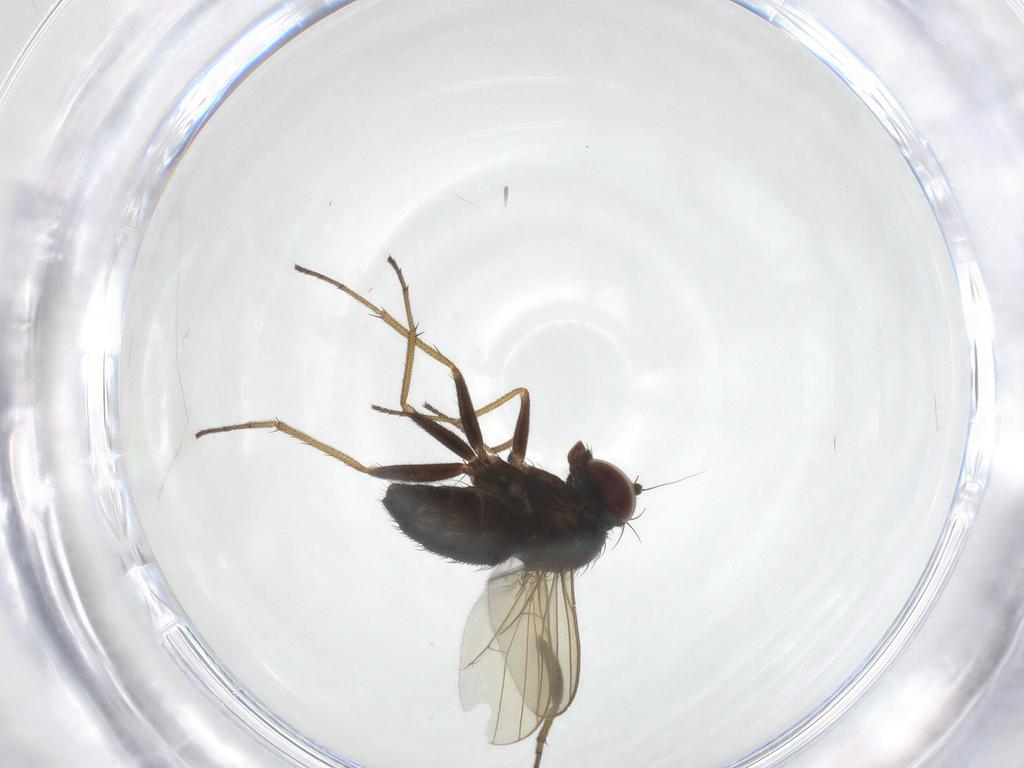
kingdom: Animalia
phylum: Arthropoda
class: Insecta
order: Diptera
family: Dolichopodidae
